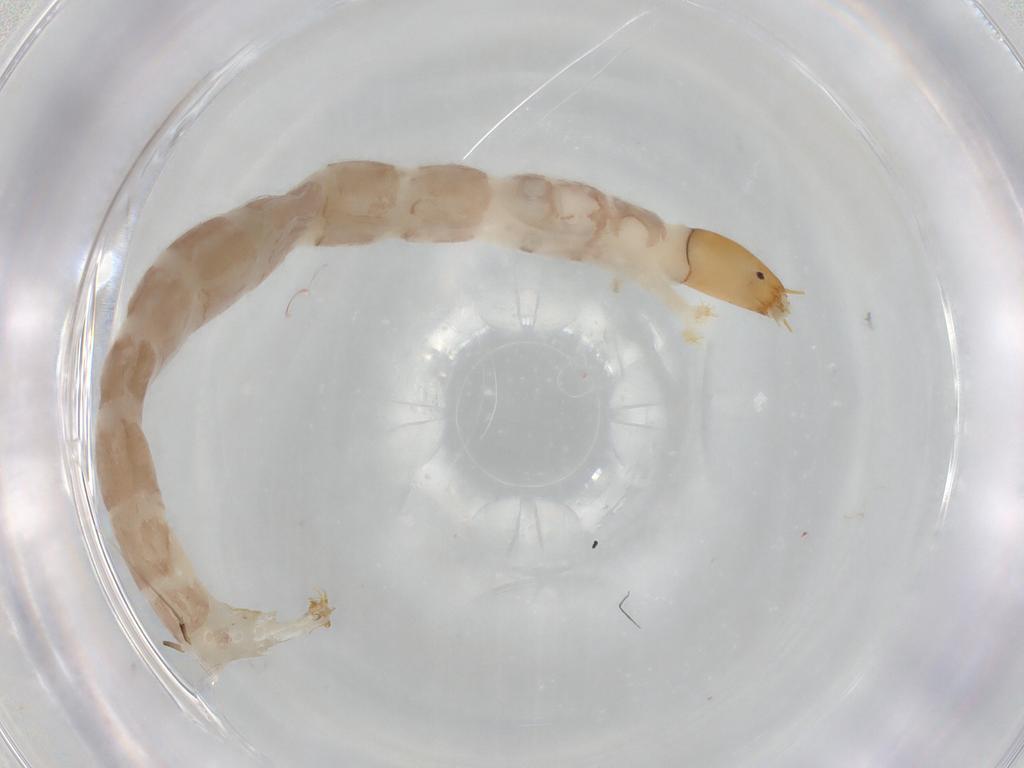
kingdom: Animalia
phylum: Arthropoda
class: Insecta
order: Diptera
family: Chironomidae
